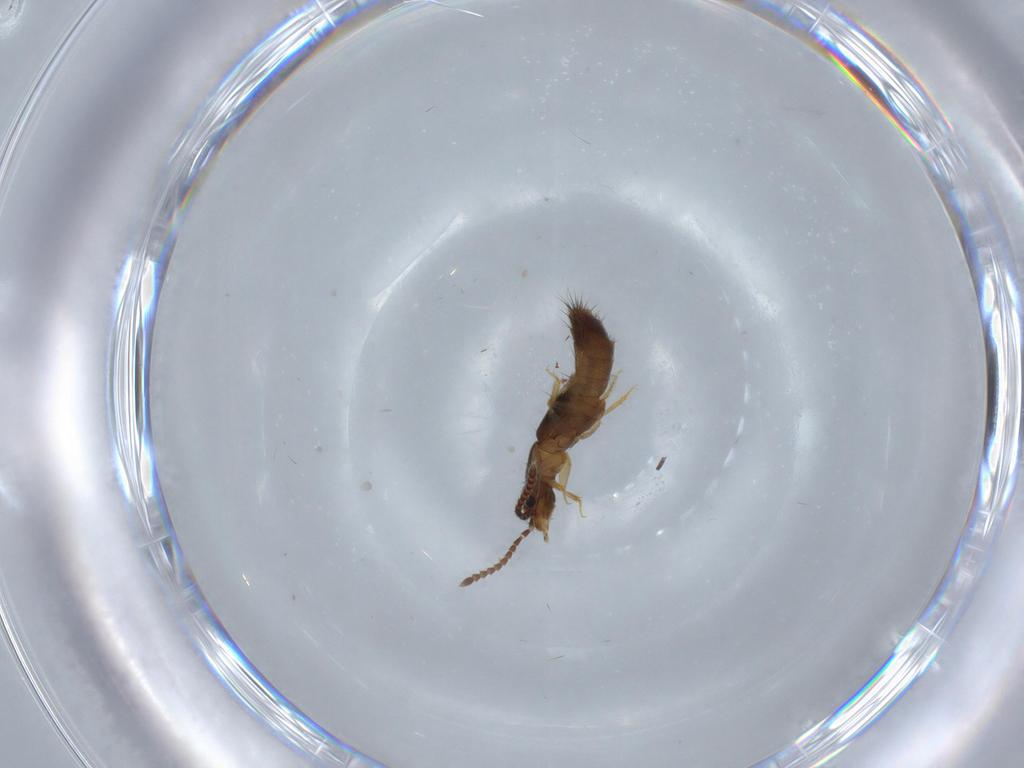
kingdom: Animalia
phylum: Arthropoda
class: Insecta
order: Coleoptera
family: Staphylinidae
